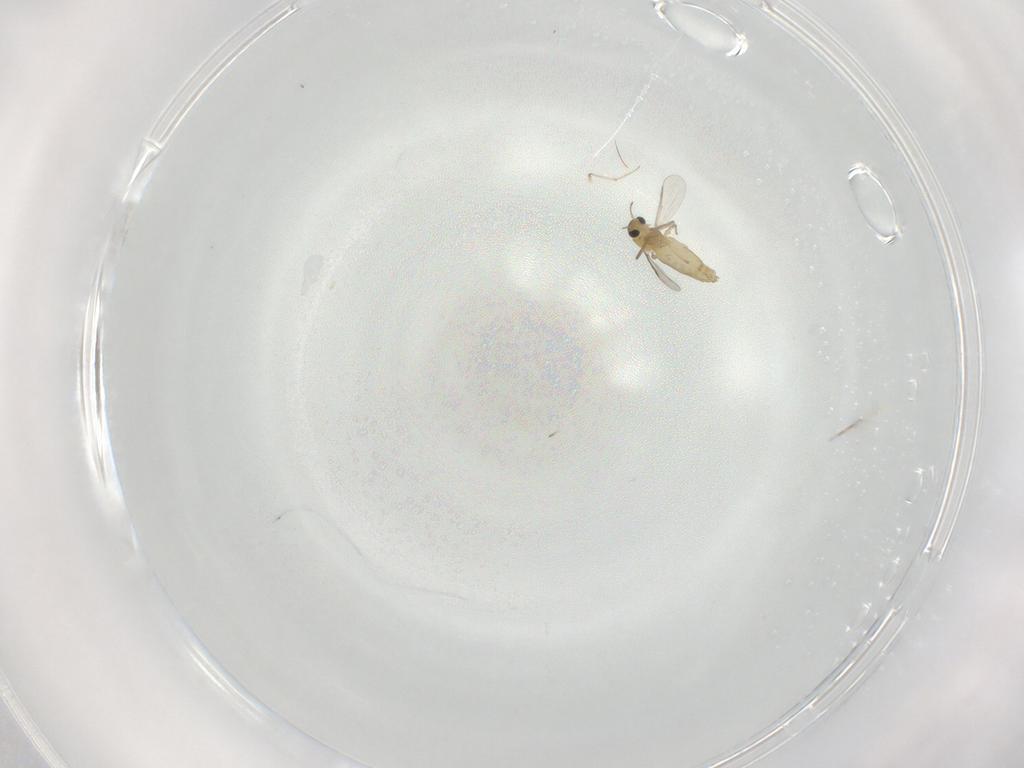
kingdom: Animalia
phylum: Arthropoda
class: Insecta
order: Diptera
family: Chironomidae
